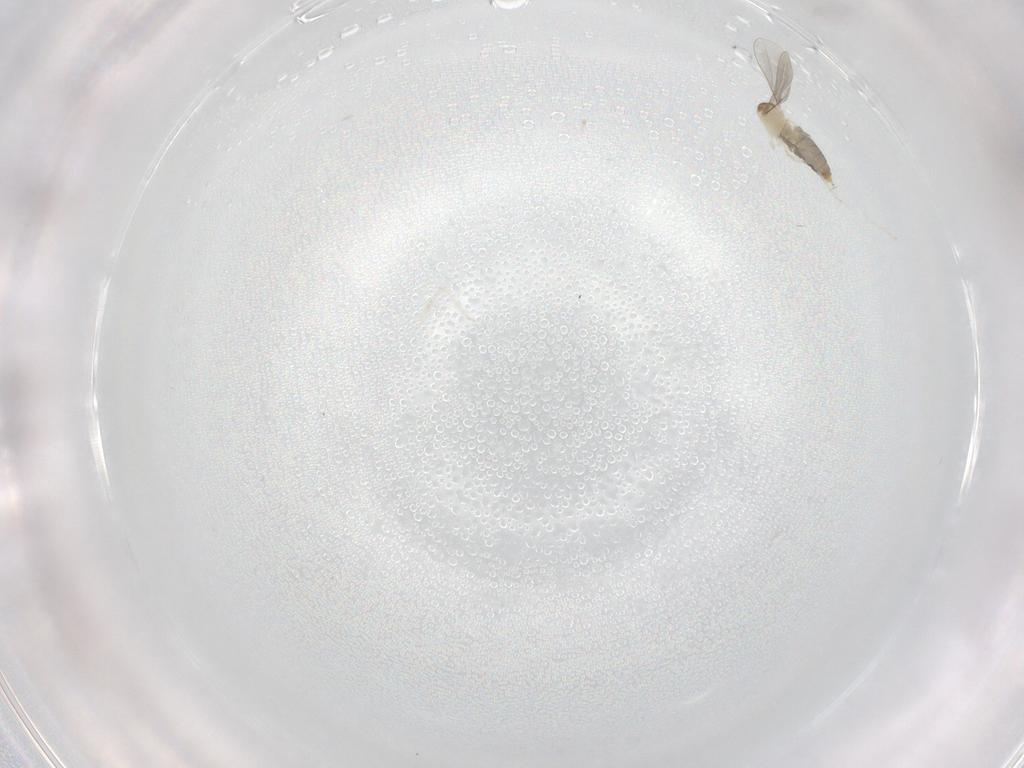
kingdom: Animalia
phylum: Arthropoda
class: Insecta
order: Diptera
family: Cecidomyiidae
